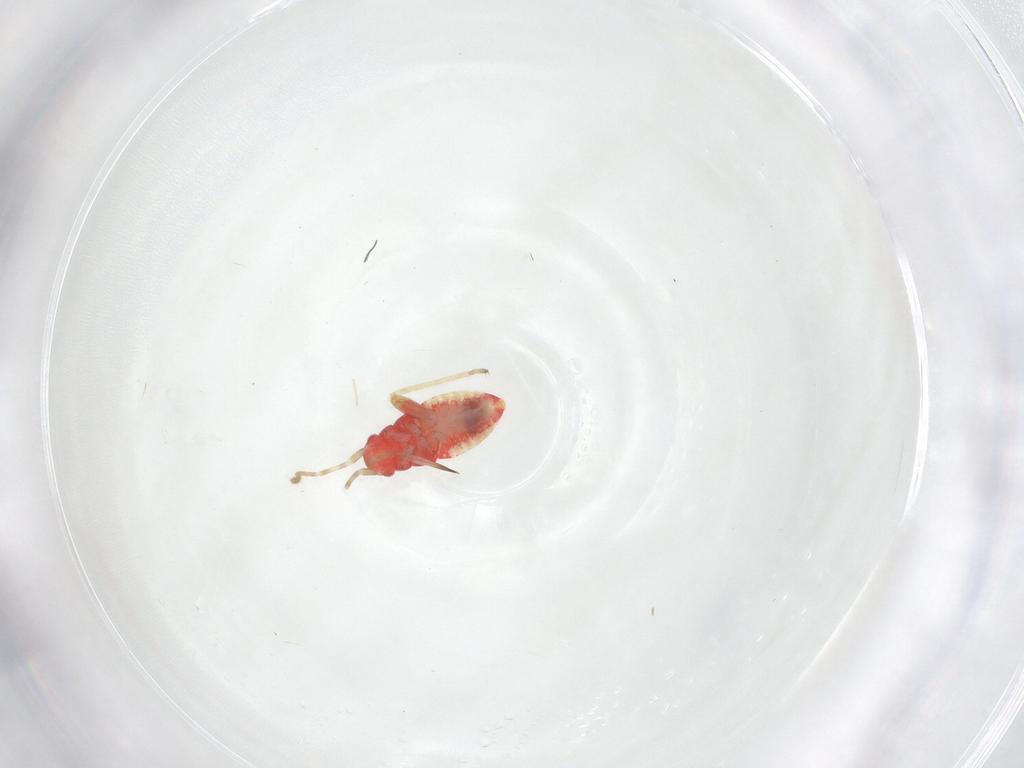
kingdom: Animalia
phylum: Arthropoda
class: Insecta
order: Hemiptera
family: Miridae
